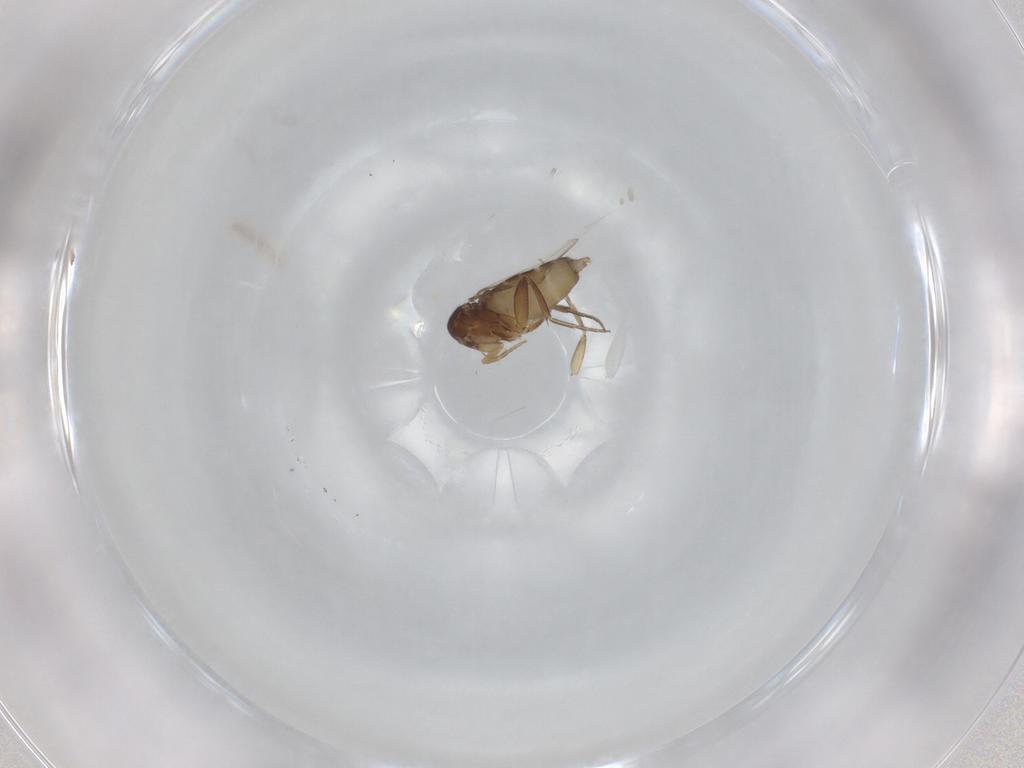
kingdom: Animalia
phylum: Arthropoda
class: Insecta
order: Diptera
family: Phoridae
